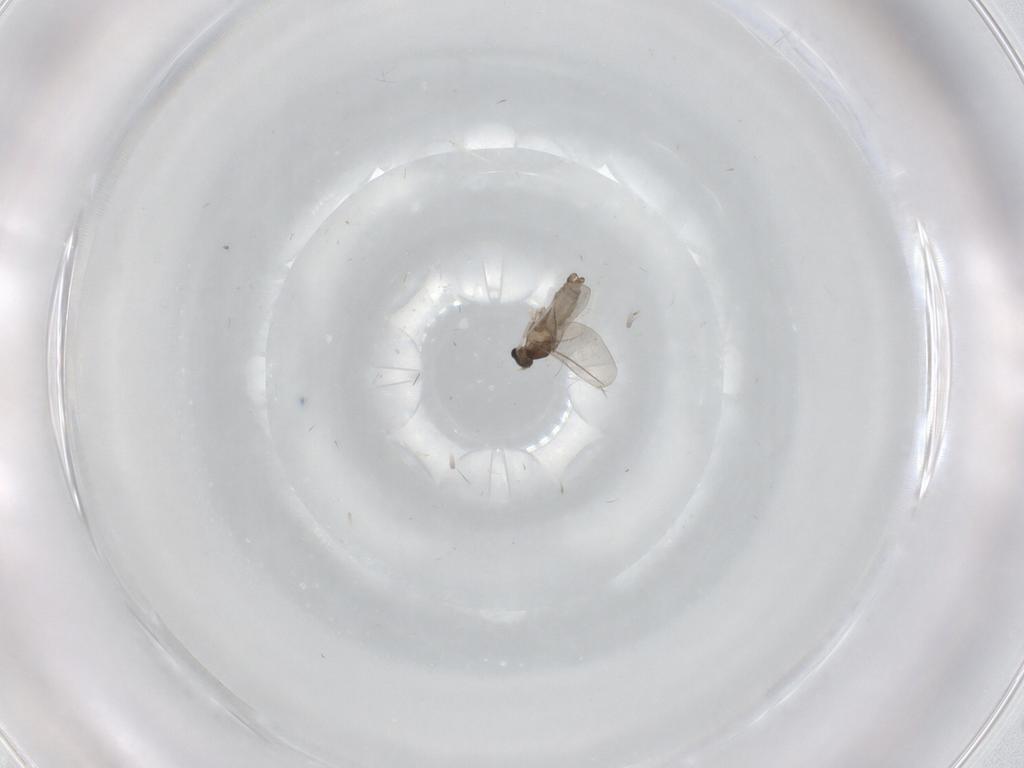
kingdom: Animalia
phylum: Arthropoda
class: Insecta
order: Diptera
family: Cecidomyiidae
